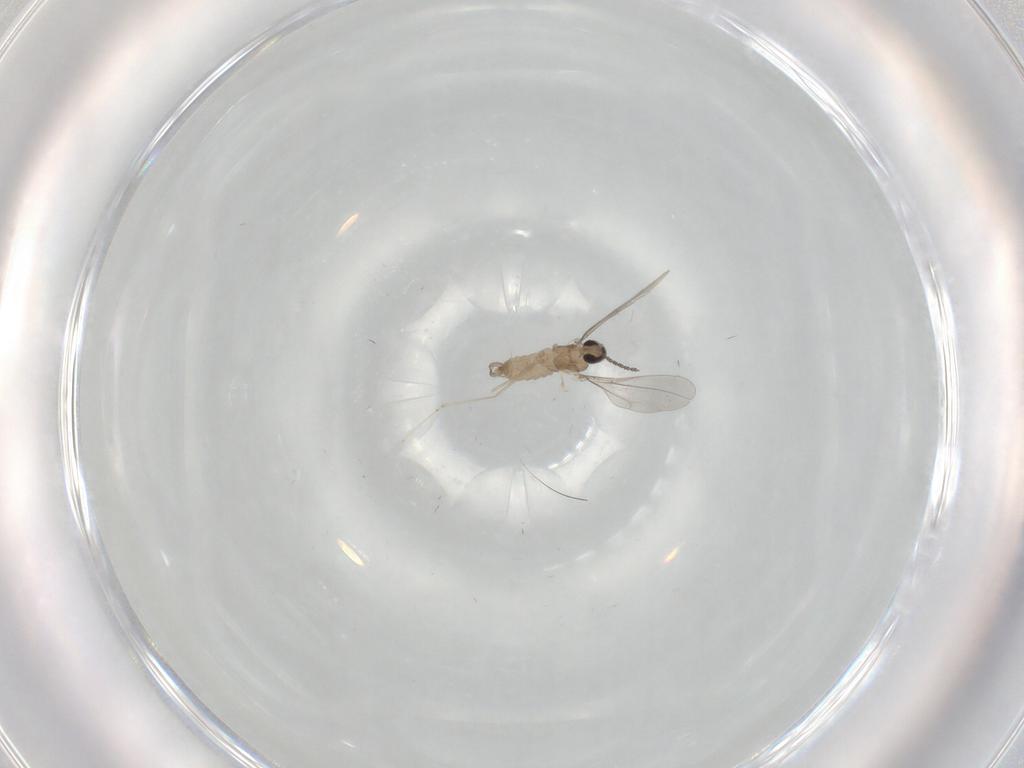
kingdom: Animalia
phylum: Arthropoda
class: Insecta
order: Diptera
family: Cecidomyiidae
